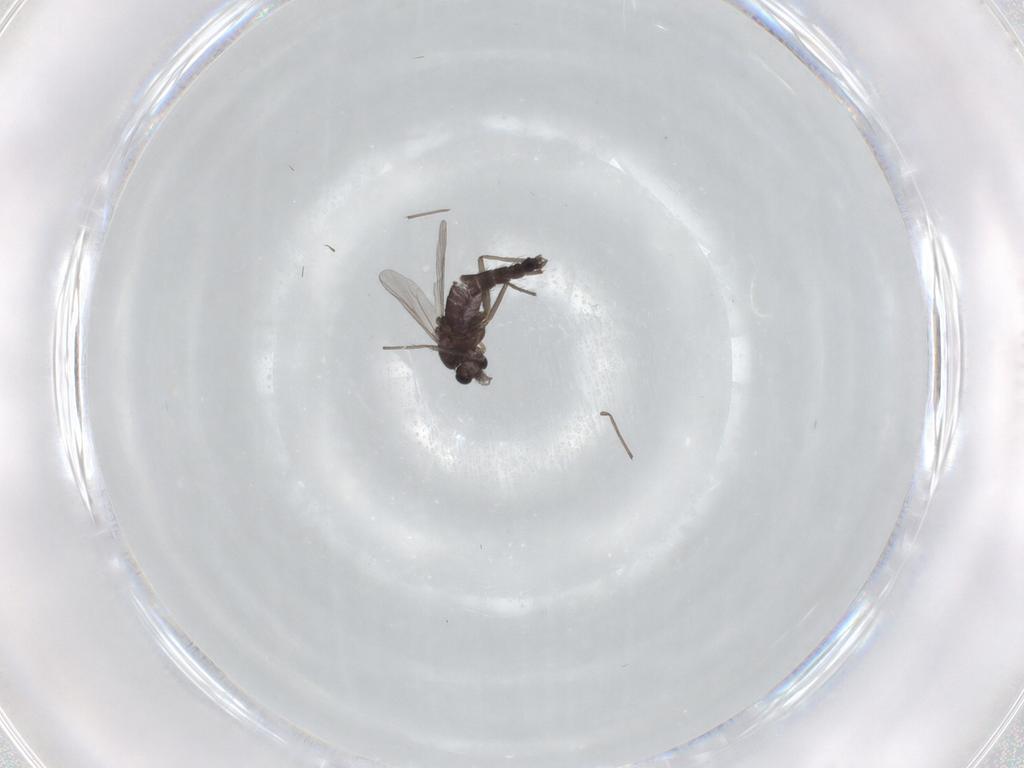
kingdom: Animalia
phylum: Arthropoda
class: Insecta
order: Diptera
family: Chironomidae
